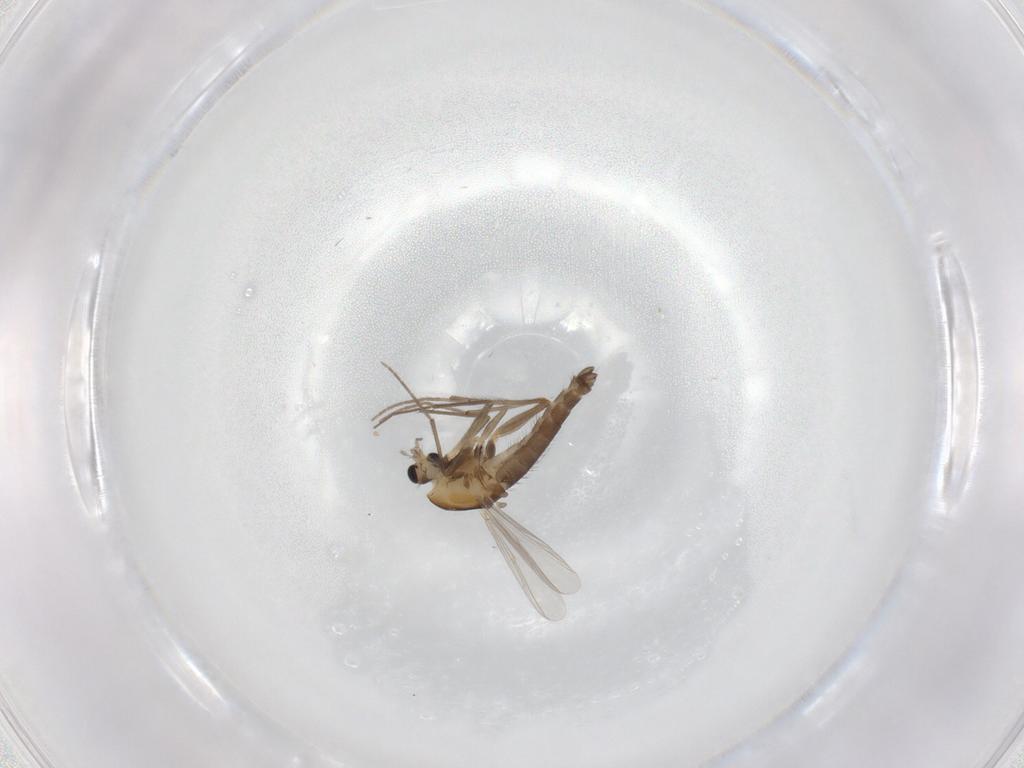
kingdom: Animalia
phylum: Arthropoda
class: Insecta
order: Diptera
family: Chironomidae
